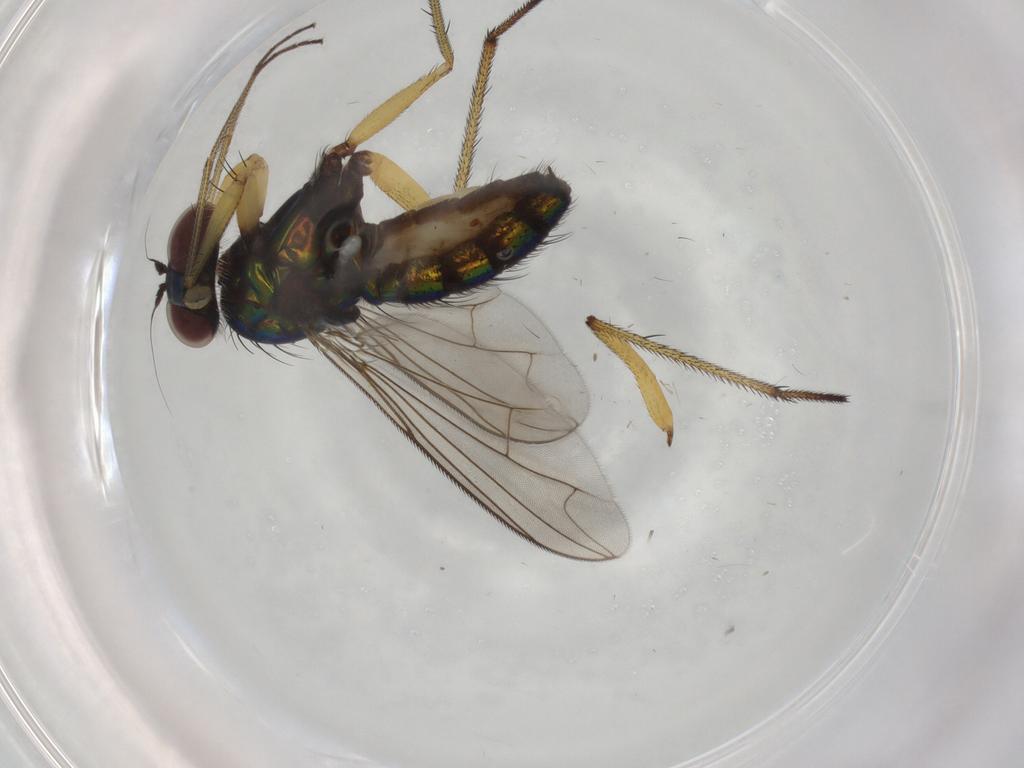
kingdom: Animalia
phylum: Arthropoda
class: Insecta
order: Diptera
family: Dolichopodidae
